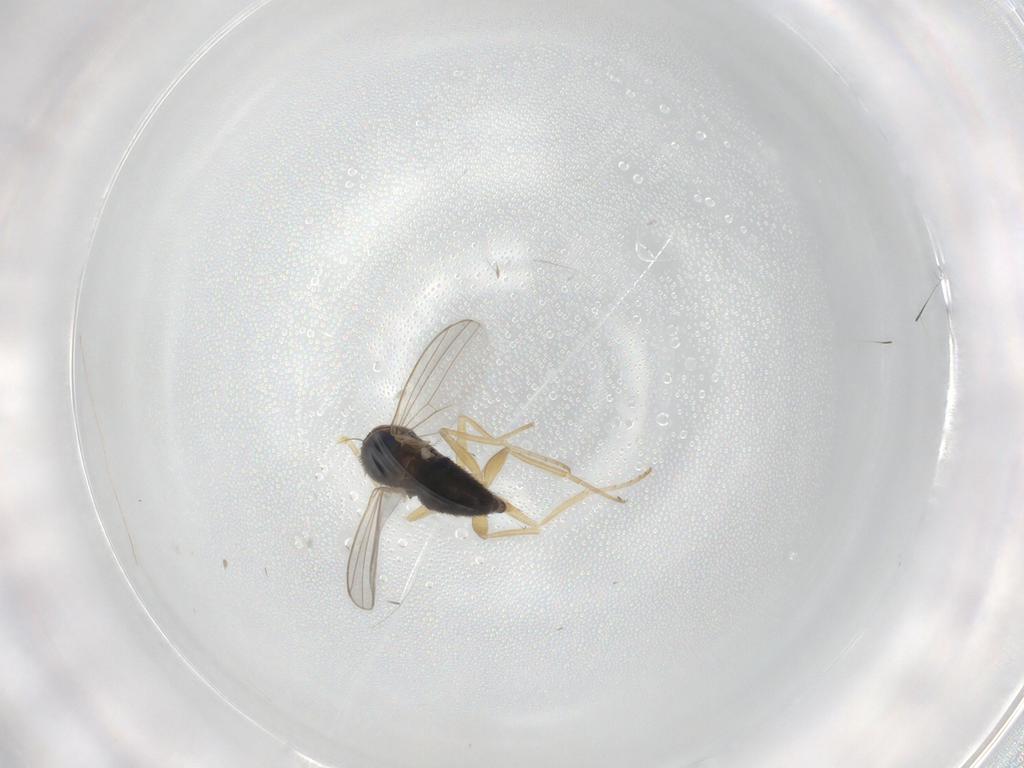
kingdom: Animalia
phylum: Arthropoda
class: Insecta
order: Diptera
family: Dolichopodidae
